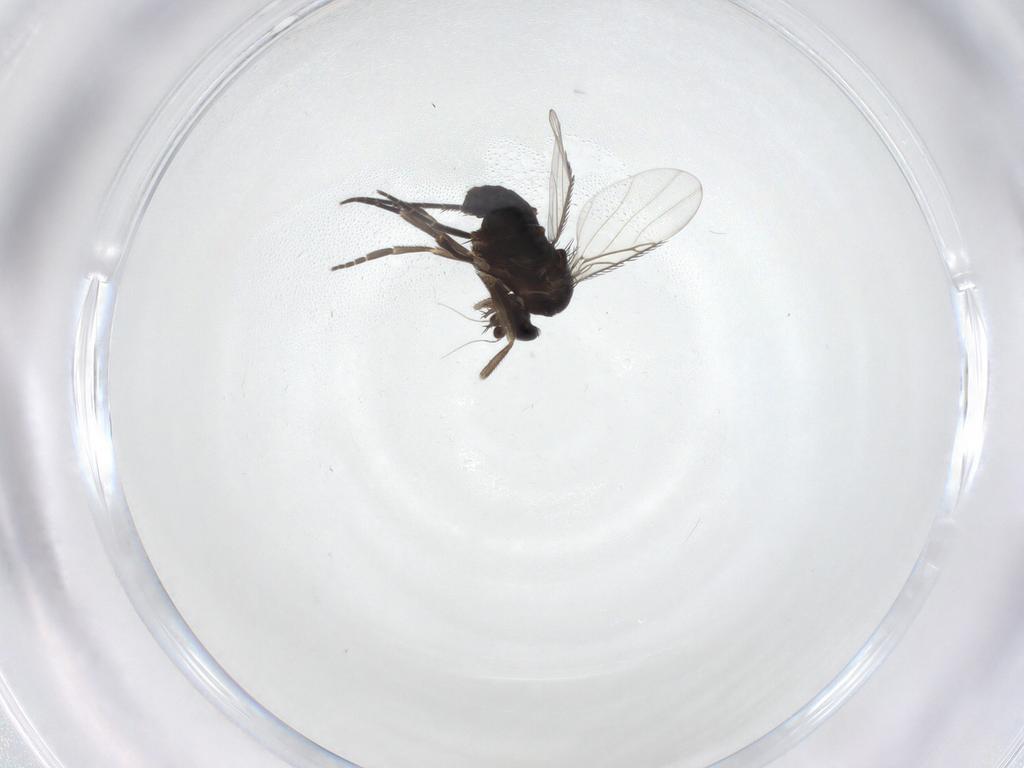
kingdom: Animalia
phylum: Arthropoda
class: Insecta
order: Diptera
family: Phoridae
